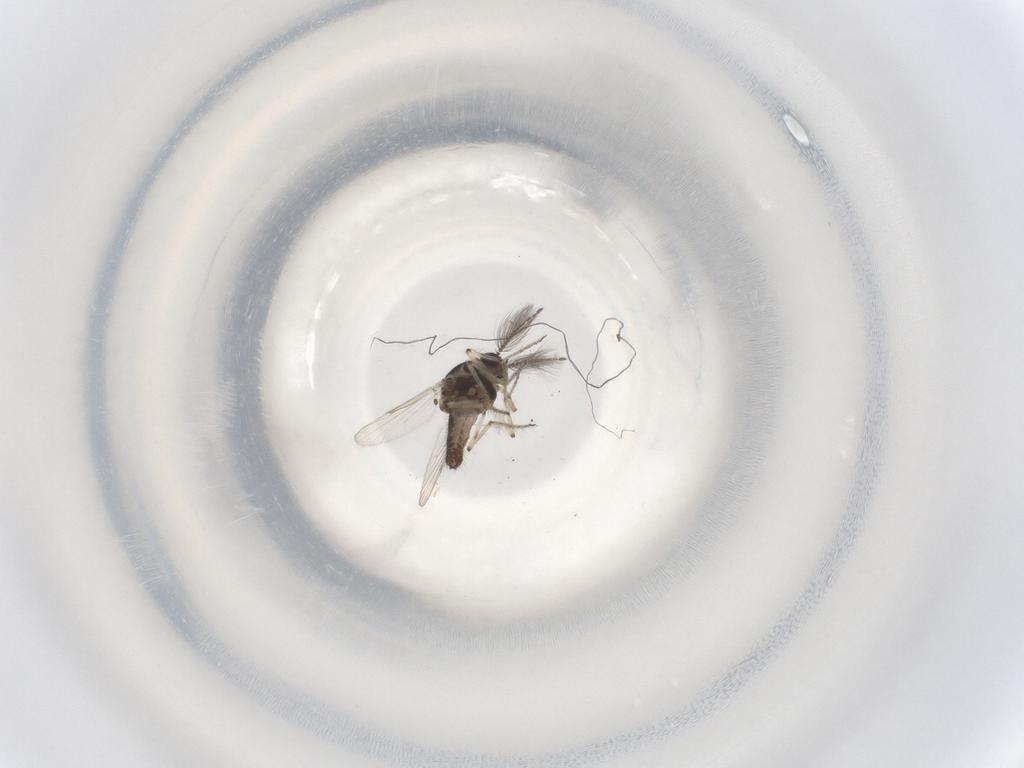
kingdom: Animalia
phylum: Arthropoda
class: Insecta
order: Diptera
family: Ceratopogonidae
